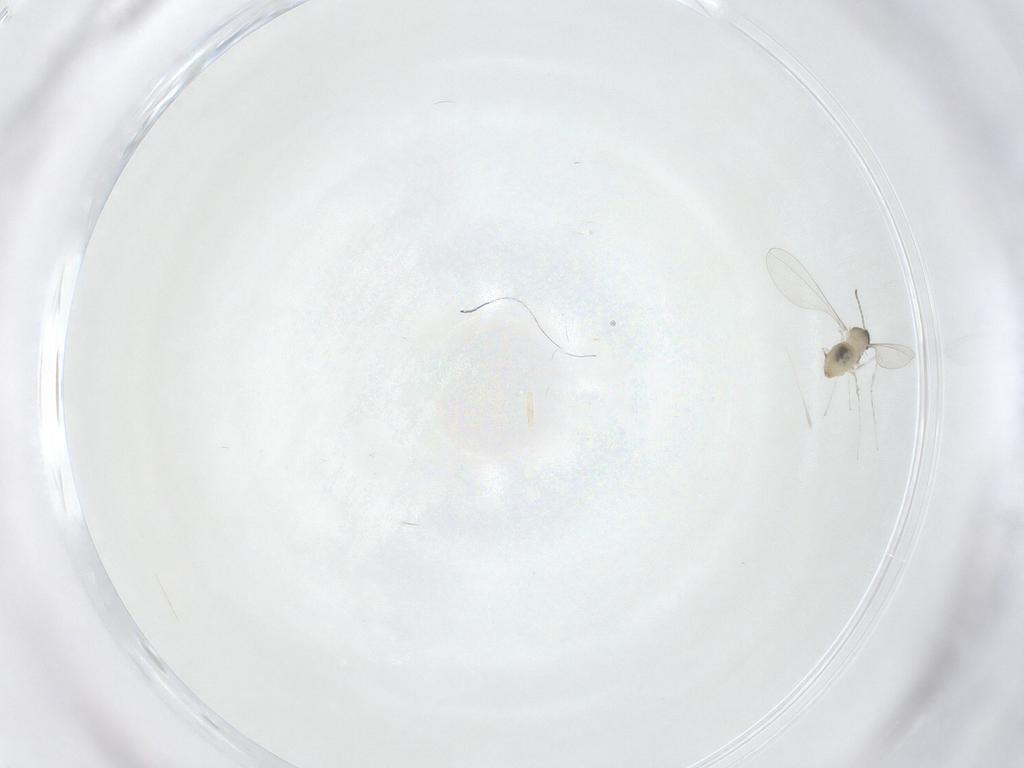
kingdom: Animalia
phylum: Arthropoda
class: Insecta
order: Diptera
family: Cecidomyiidae
